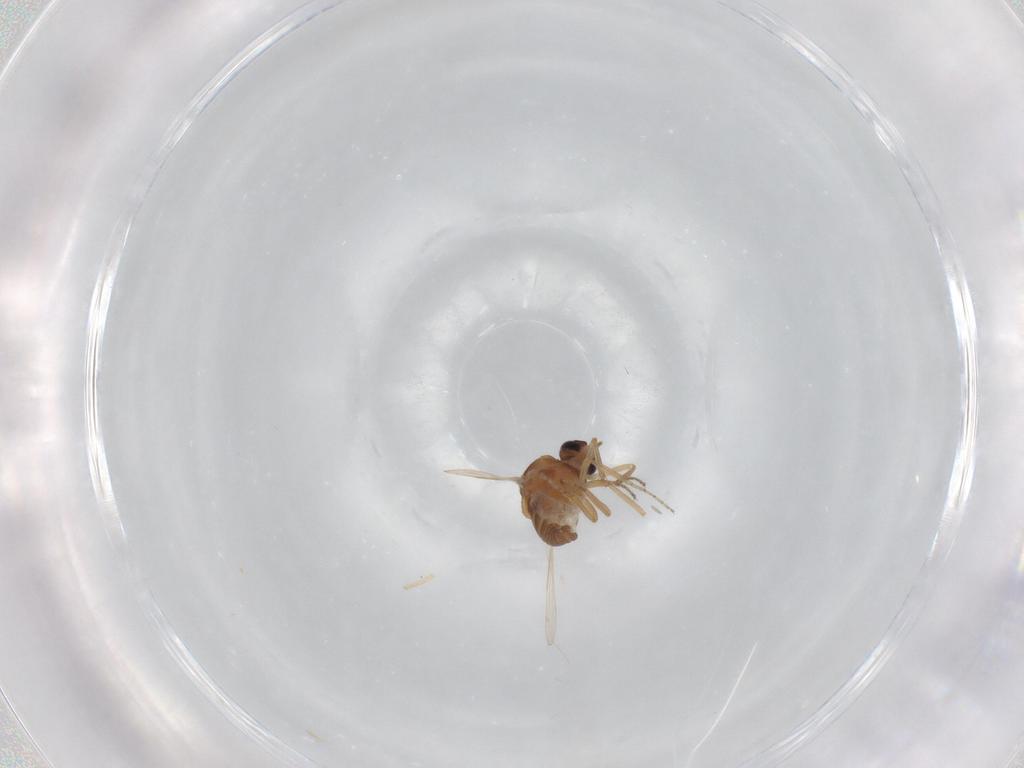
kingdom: Animalia
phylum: Arthropoda
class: Insecta
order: Diptera
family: Ceratopogonidae
